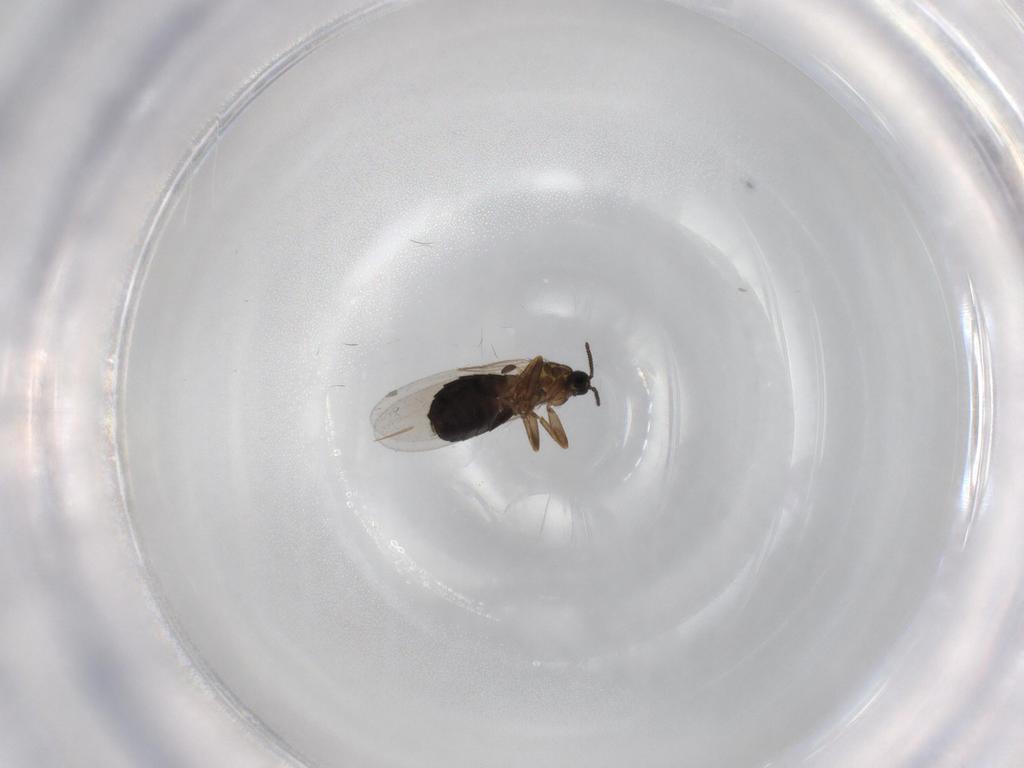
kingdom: Animalia
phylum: Arthropoda
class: Insecta
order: Diptera
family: Scatopsidae
